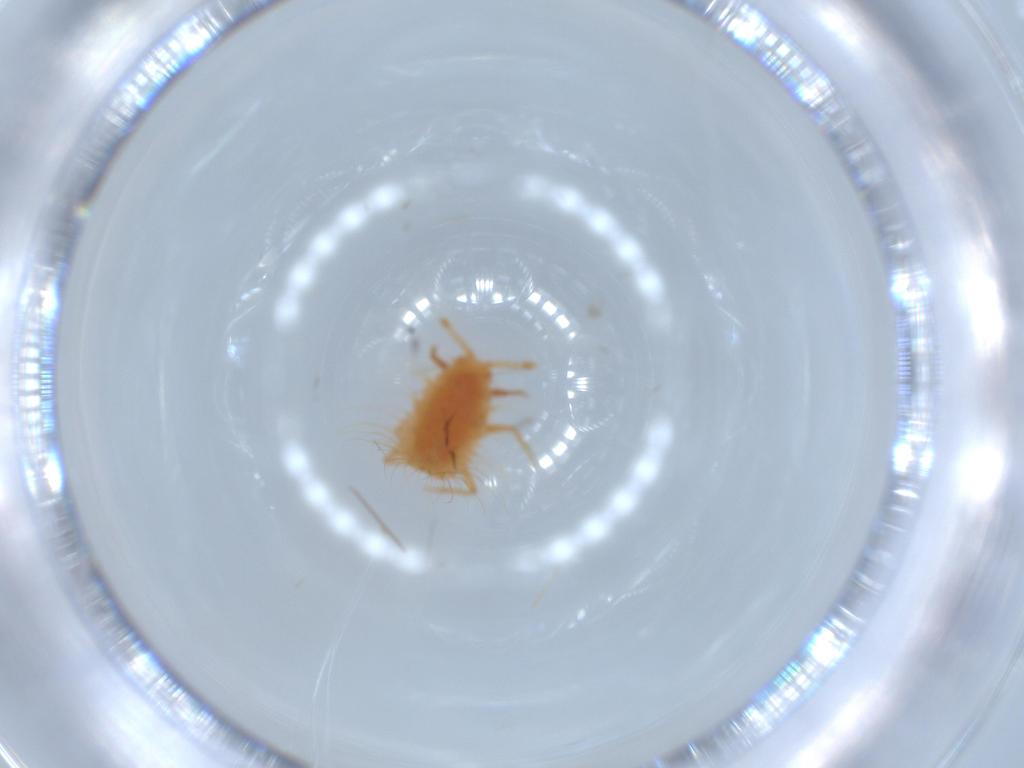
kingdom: Animalia
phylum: Arthropoda
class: Insecta
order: Hemiptera
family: Monophlebidae
